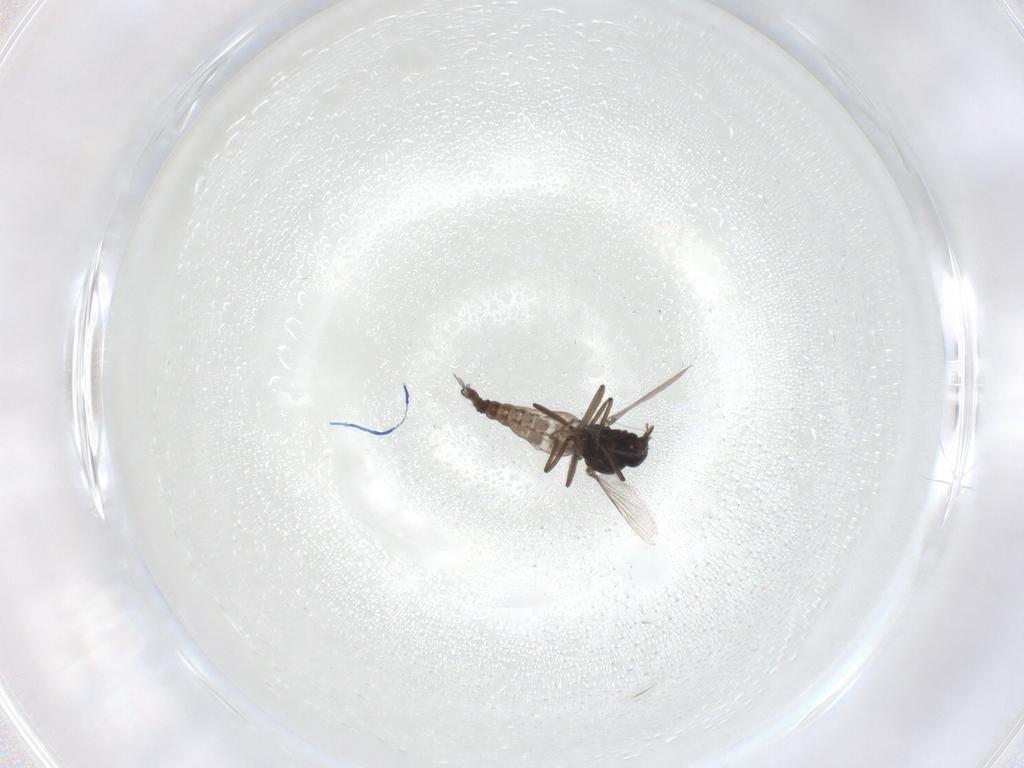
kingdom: Animalia
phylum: Arthropoda
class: Insecta
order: Diptera
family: Ceratopogonidae
